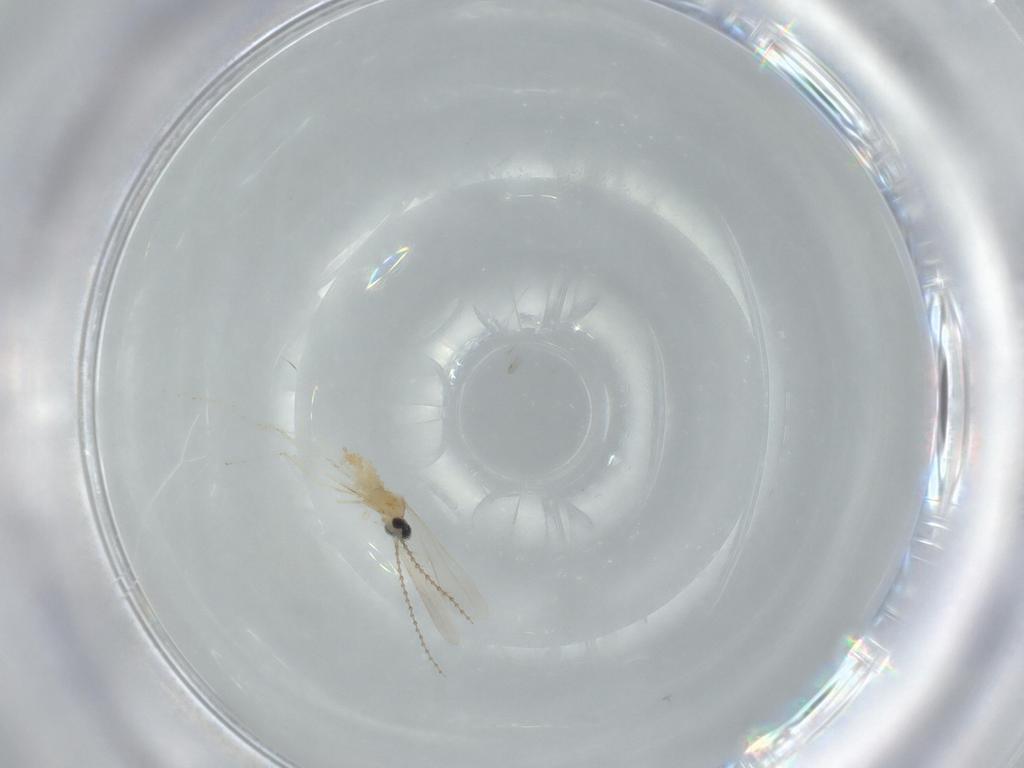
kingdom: Animalia
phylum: Arthropoda
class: Insecta
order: Diptera
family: Cecidomyiidae
